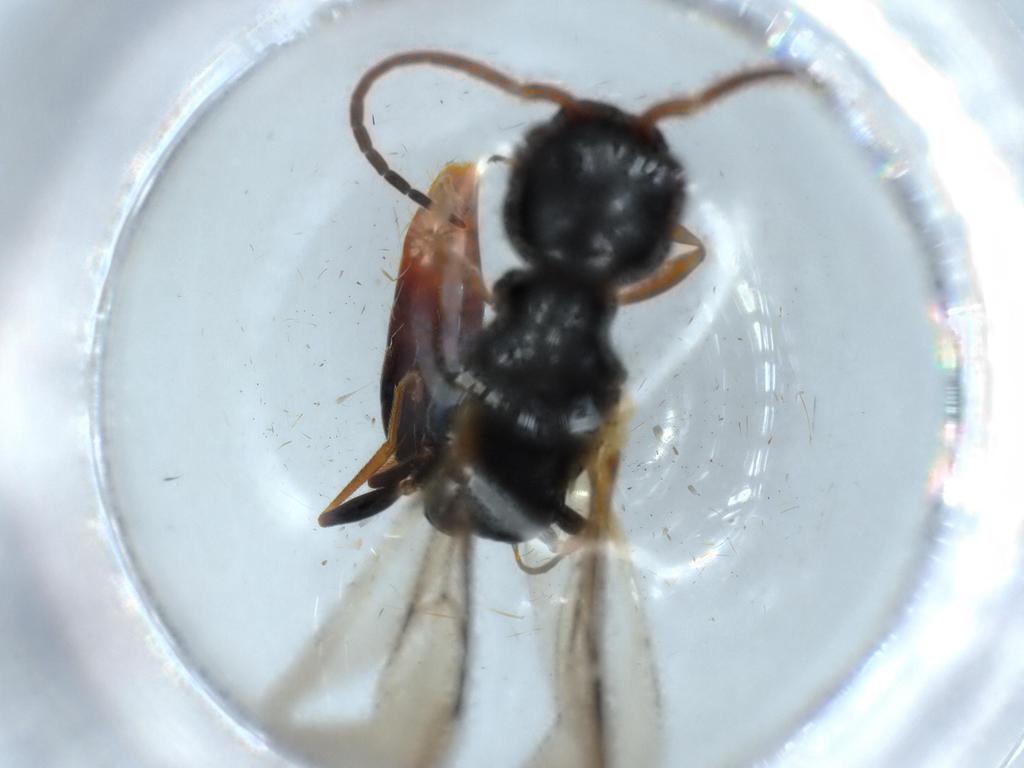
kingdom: Animalia
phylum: Arthropoda
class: Insecta
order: Hymenoptera
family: Bethylidae
